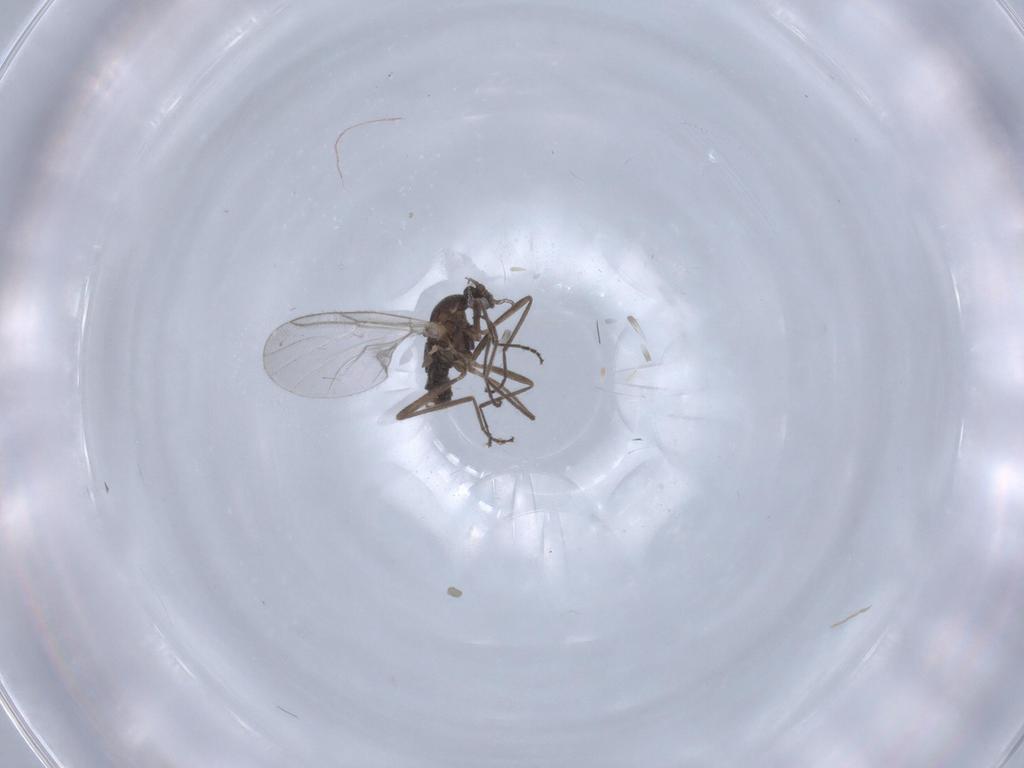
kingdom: Animalia
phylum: Arthropoda
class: Insecta
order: Diptera
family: Cecidomyiidae
